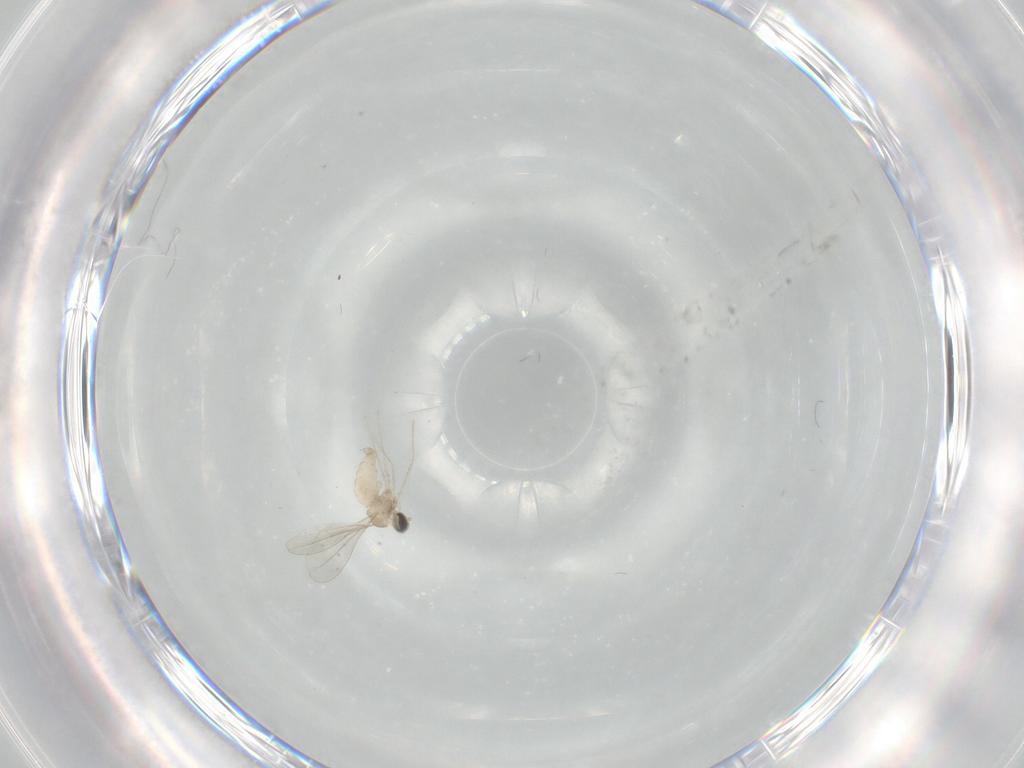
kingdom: Animalia
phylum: Arthropoda
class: Insecta
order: Diptera
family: Cecidomyiidae
